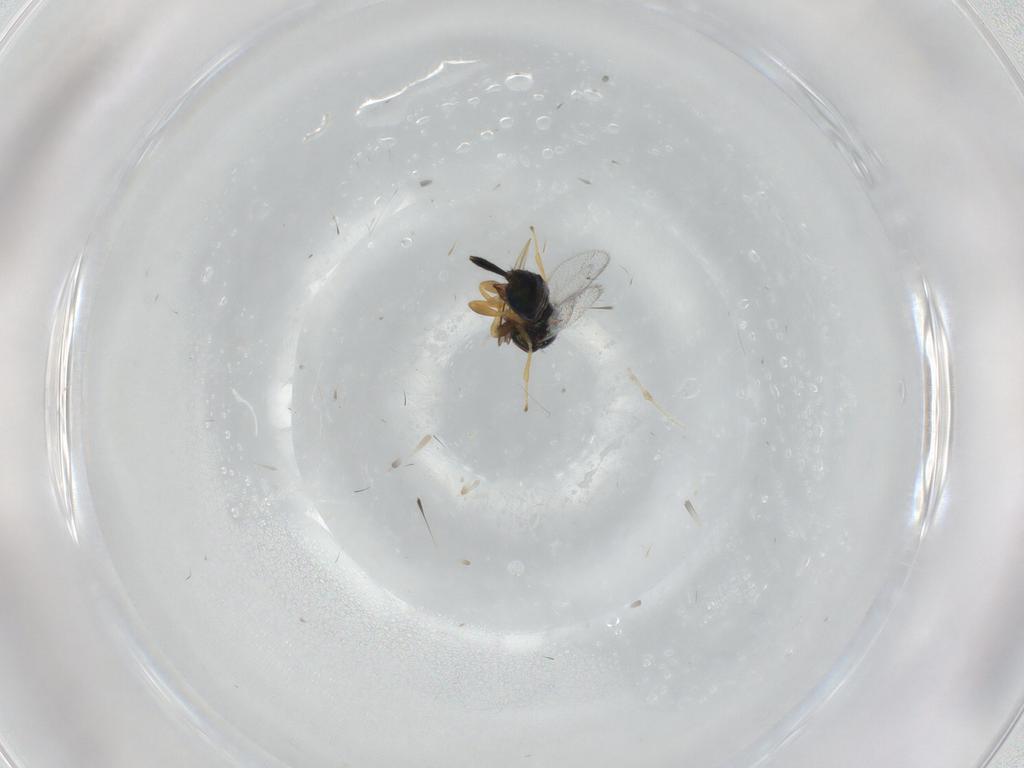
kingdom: Animalia
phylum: Arthropoda
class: Insecta
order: Hymenoptera
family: Torymidae
